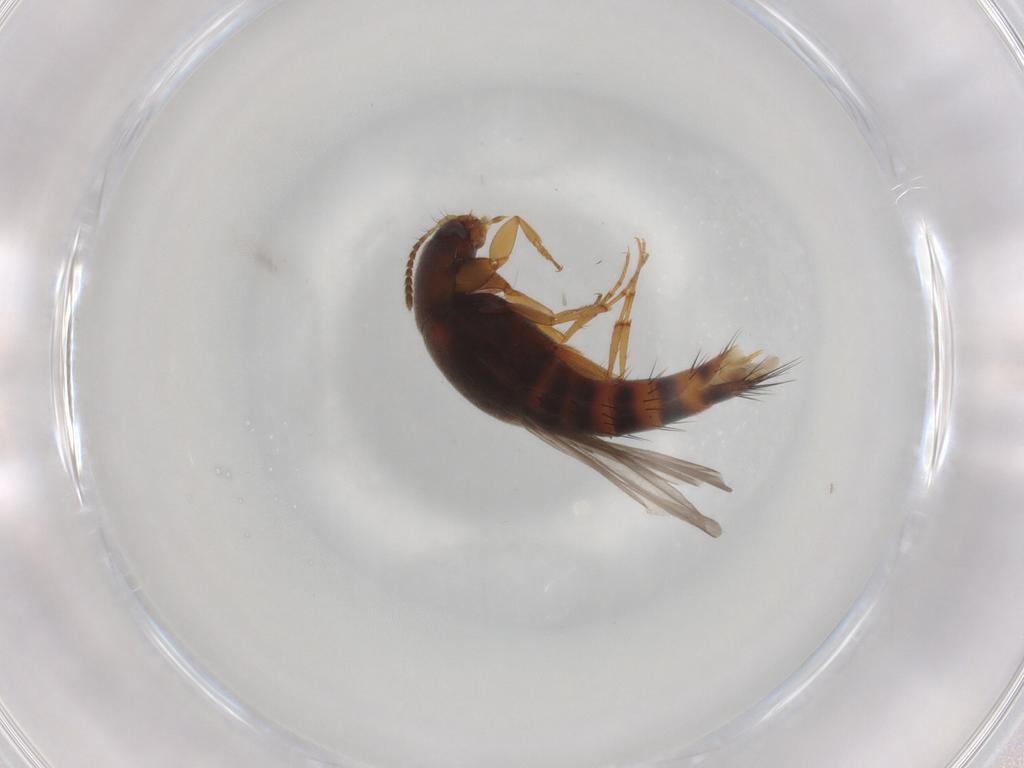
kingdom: Animalia
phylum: Arthropoda
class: Insecta
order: Coleoptera
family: Staphylinidae
